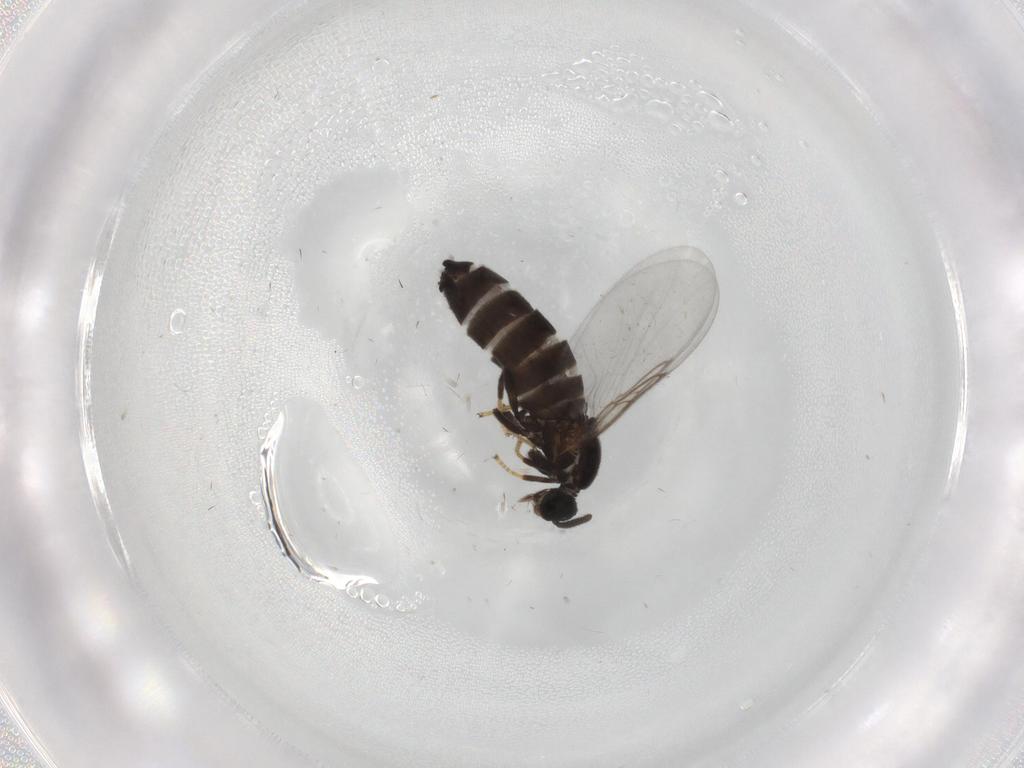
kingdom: Animalia
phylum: Arthropoda
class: Insecta
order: Diptera
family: Scatopsidae
